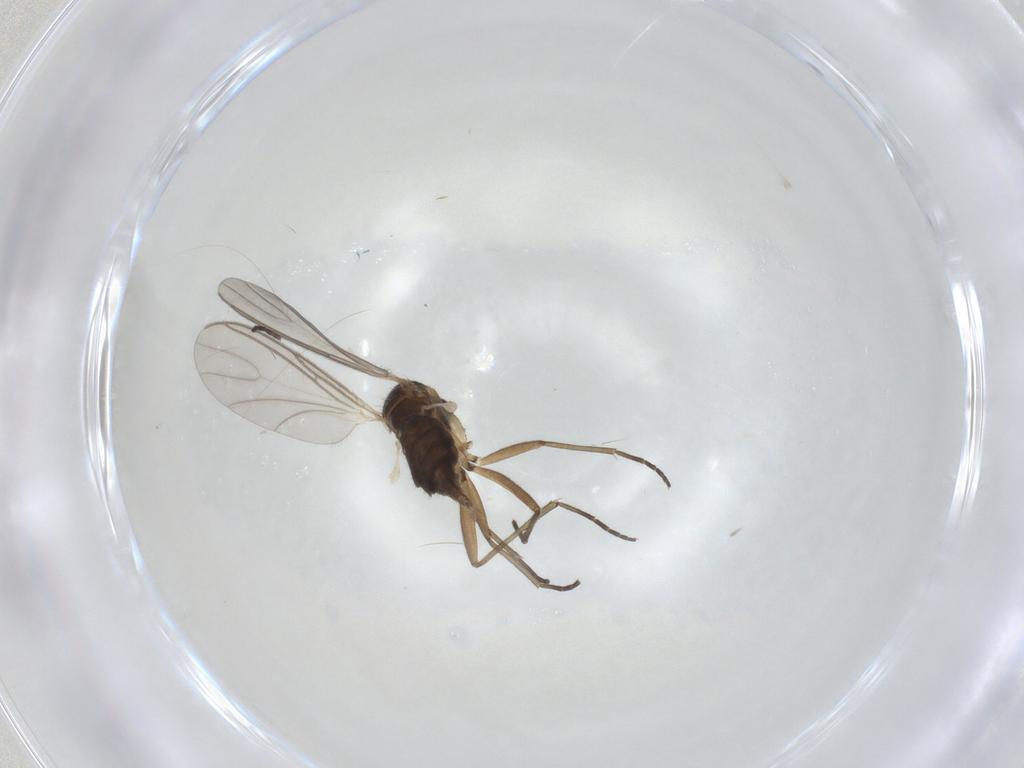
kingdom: Animalia
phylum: Arthropoda
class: Insecta
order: Diptera
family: Sciaridae
